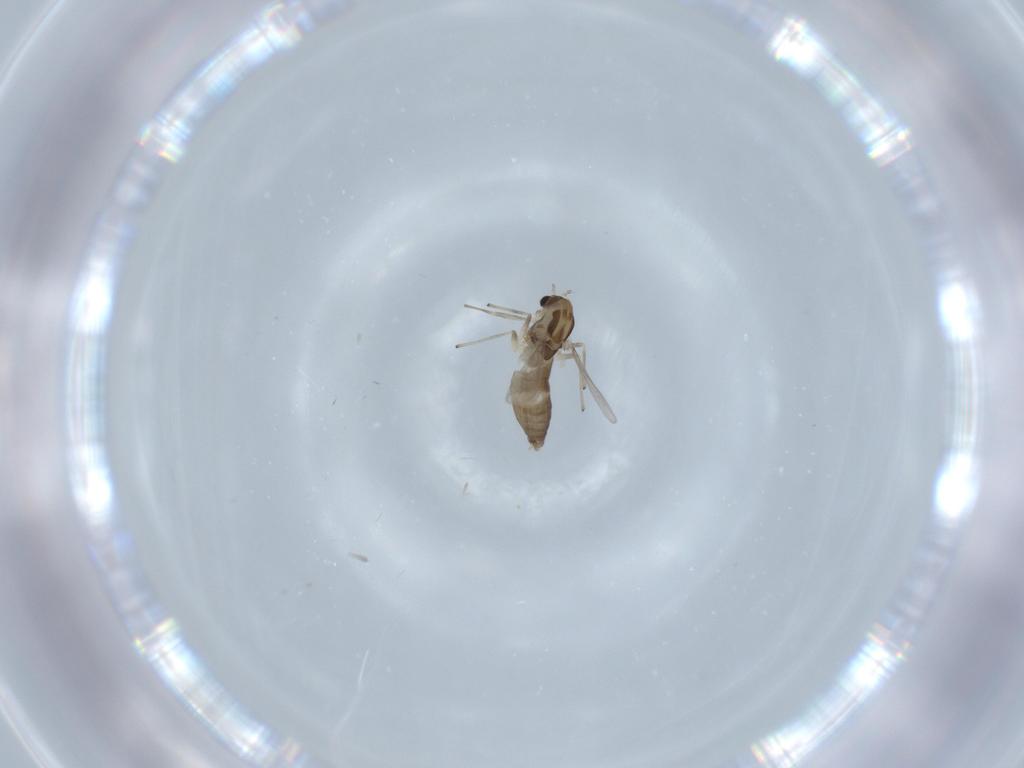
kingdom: Animalia
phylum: Arthropoda
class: Insecta
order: Diptera
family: Chironomidae
